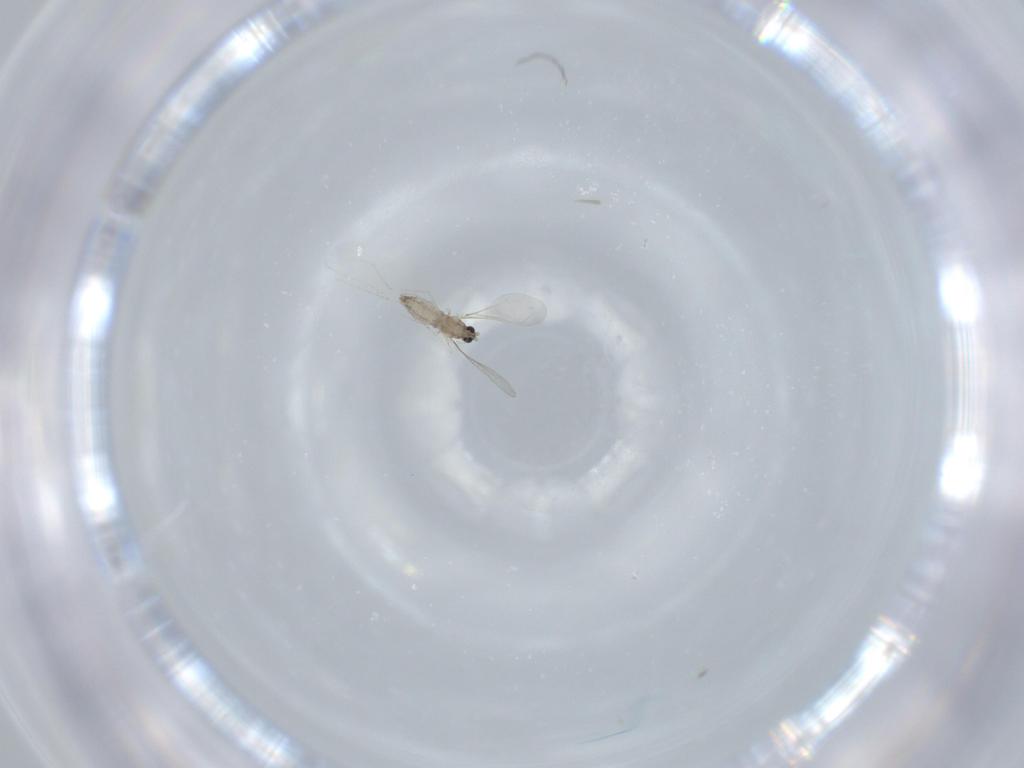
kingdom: Animalia
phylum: Arthropoda
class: Insecta
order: Diptera
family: Cecidomyiidae
